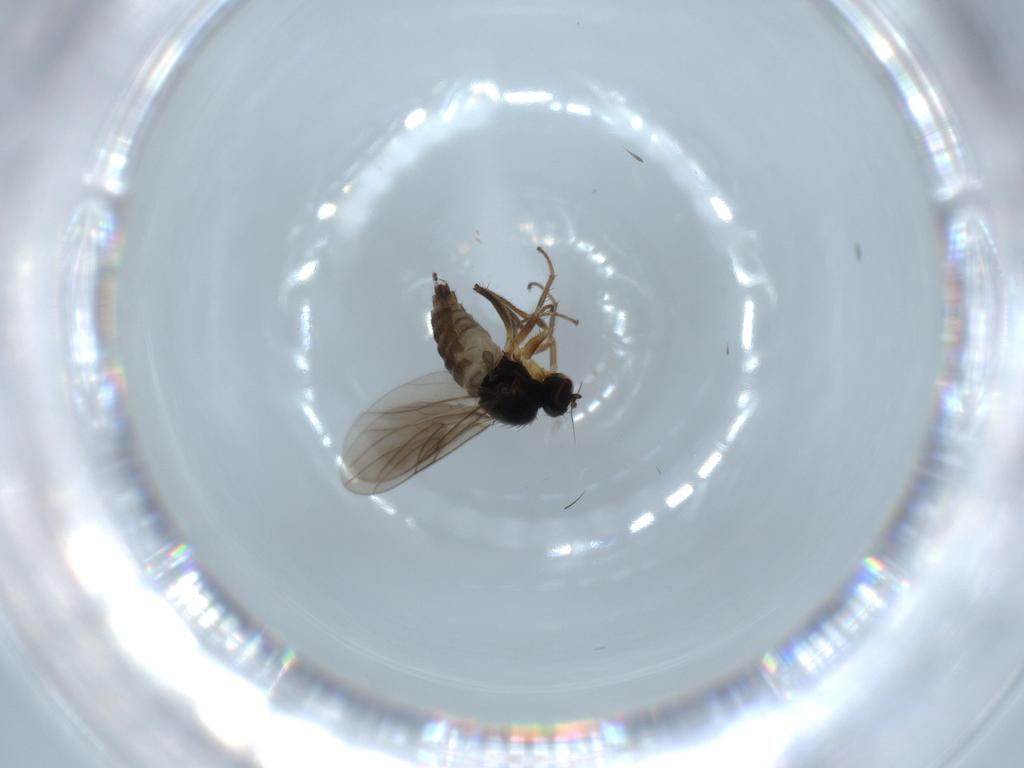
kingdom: Animalia
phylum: Arthropoda
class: Insecta
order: Diptera
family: Hybotidae
